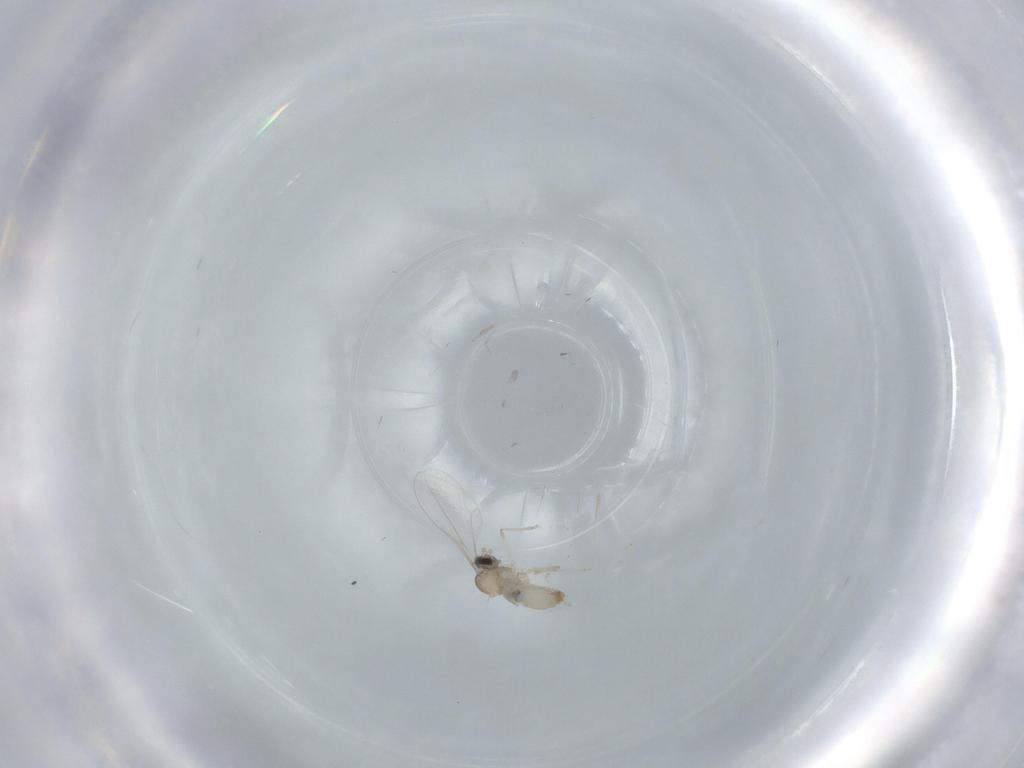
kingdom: Animalia
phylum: Arthropoda
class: Insecta
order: Diptera
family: Cecidomyiidae
